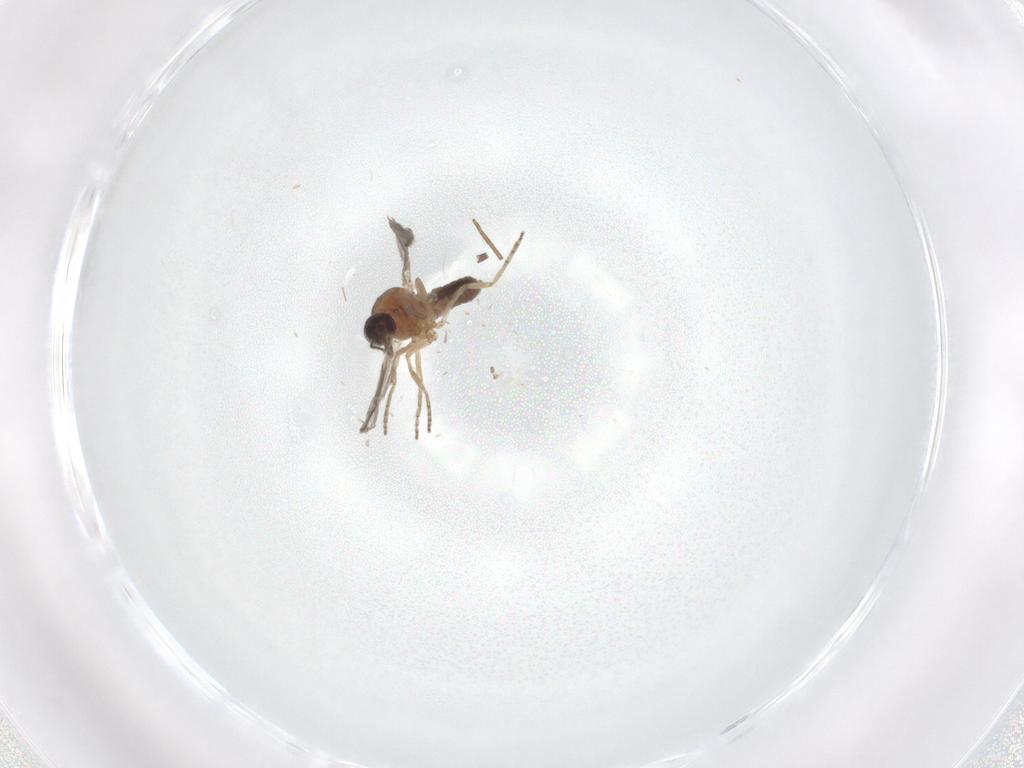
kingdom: Animalia
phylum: Arthropoda
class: Insecta
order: Diptera
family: Ceratopogonidae
